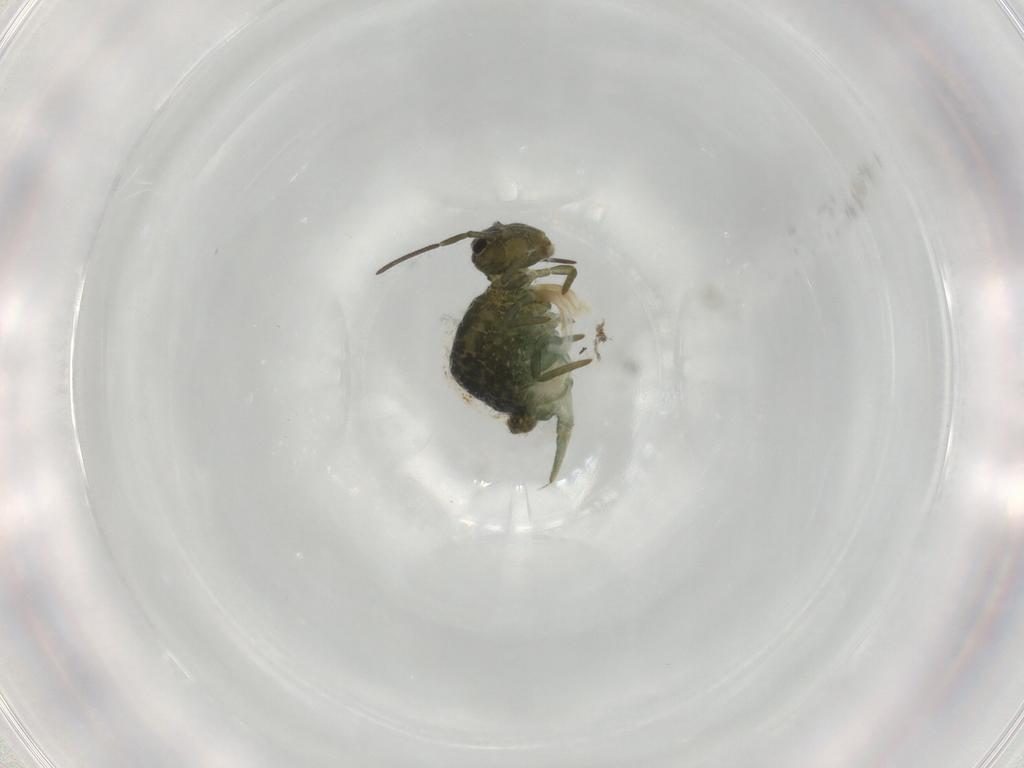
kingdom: Animalia
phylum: Arthropoda
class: Collembola
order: Symphypleona
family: Sminthuridae
